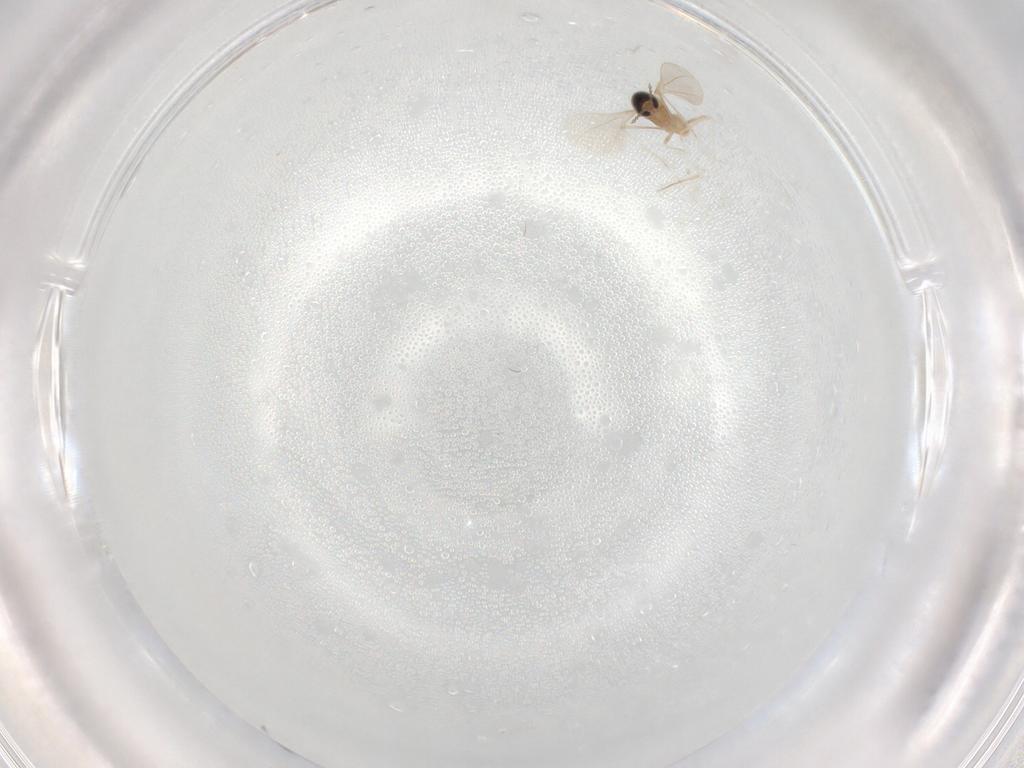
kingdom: Animalia
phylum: Arthropoda
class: Insecta
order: Diptera
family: Cecidomyiidae
